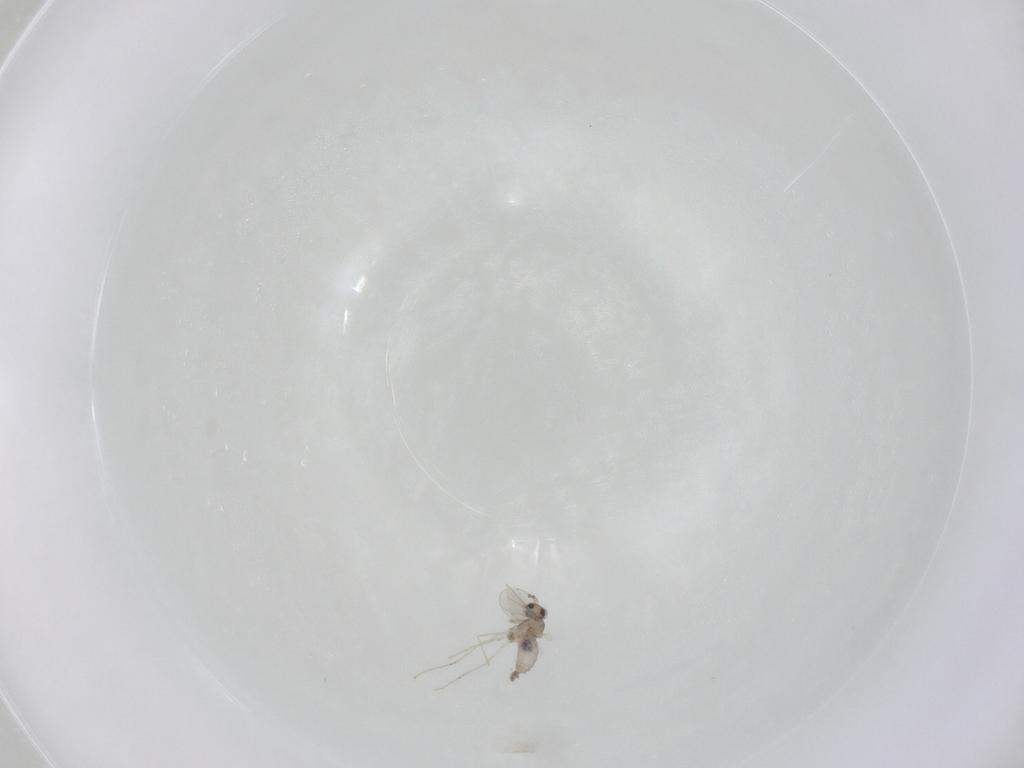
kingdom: Animalia
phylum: Arthropoda
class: Insecta
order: Diptera
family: Cecidomyiidae
